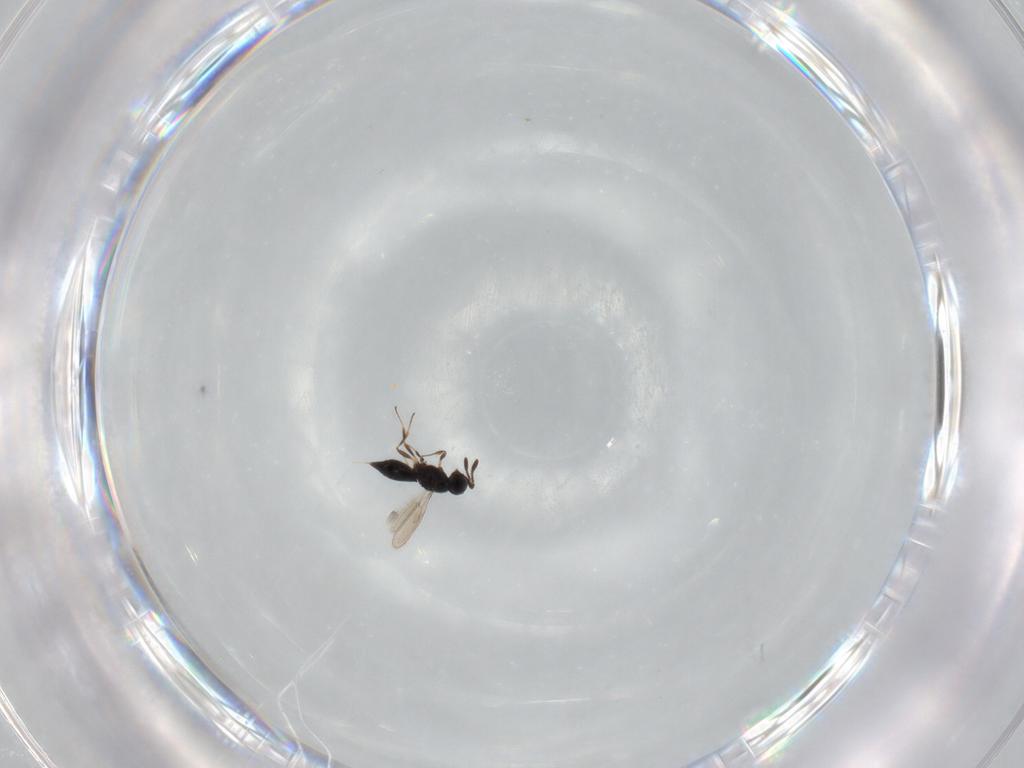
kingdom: Animalia
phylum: Arthropoda
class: Insecta
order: Hymenoptera
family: Scelionidae
